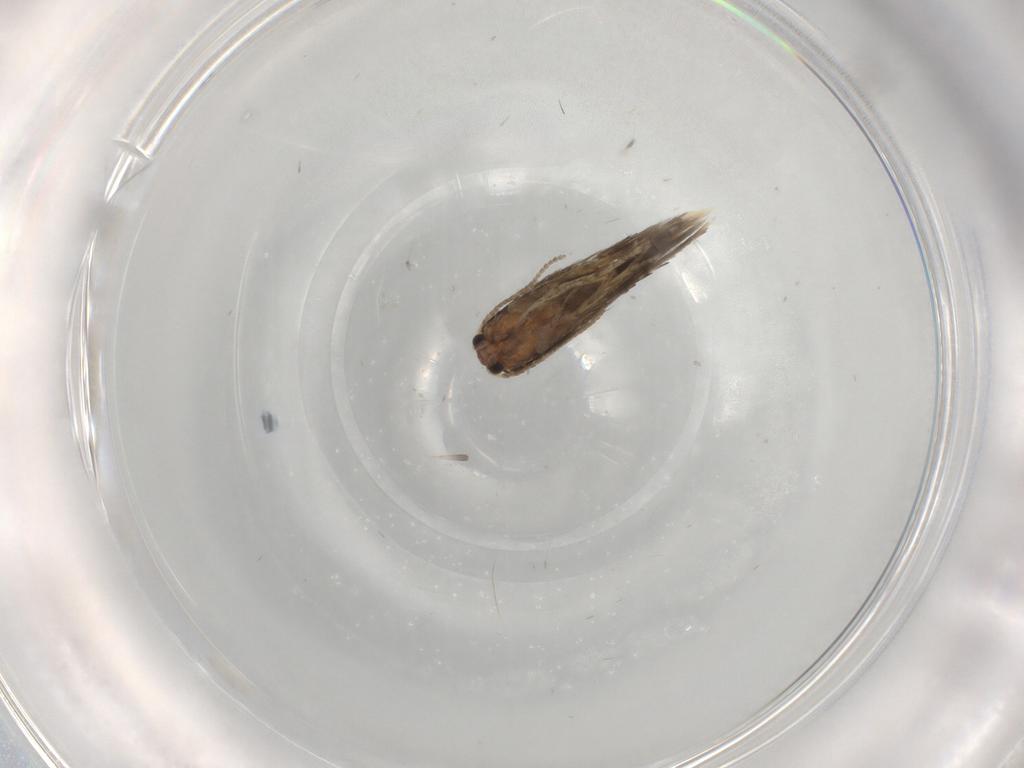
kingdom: Animalia
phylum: Arthropoda
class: Insecta
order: Lepidoptera
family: Nepticulidae
